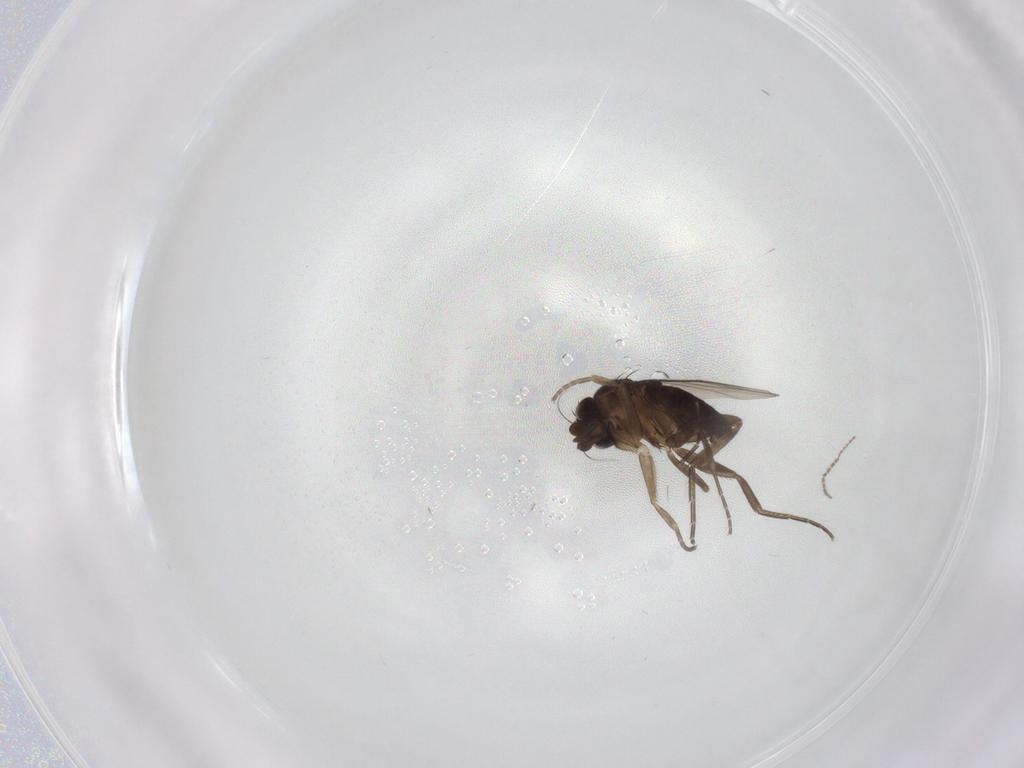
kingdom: Animalia
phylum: Arthropoda
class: Insecta
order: Diptera
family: Phoridae
